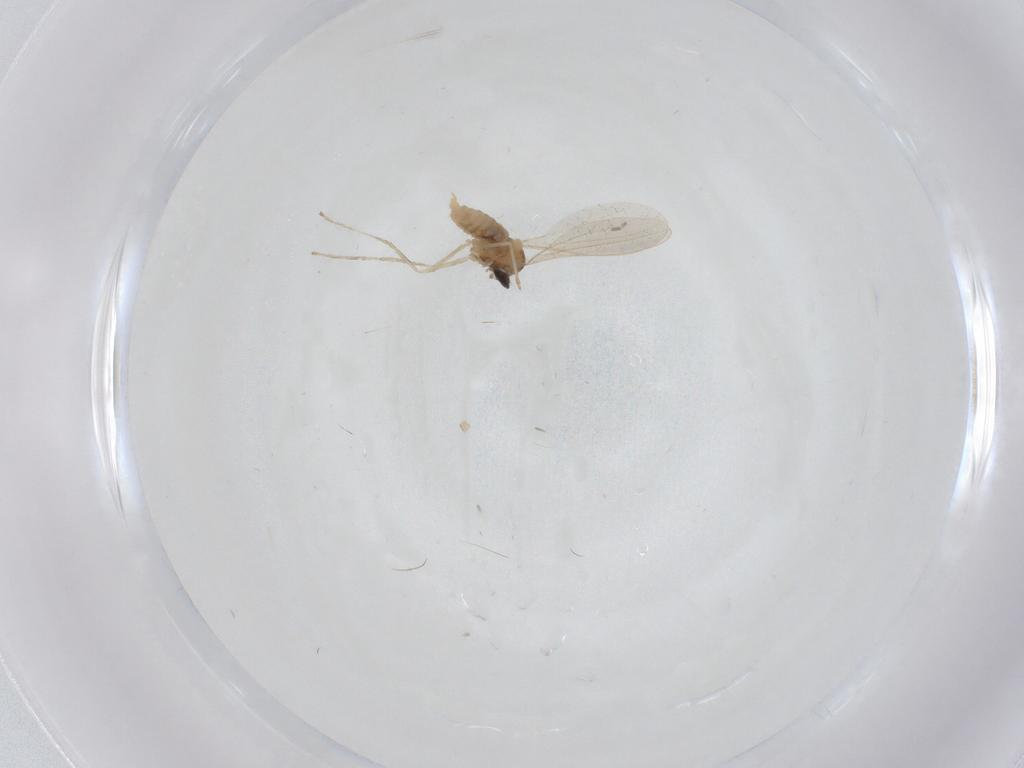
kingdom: Animalia
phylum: Arthropoda
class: Insecta
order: Diptera
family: Cecidomyiidae
